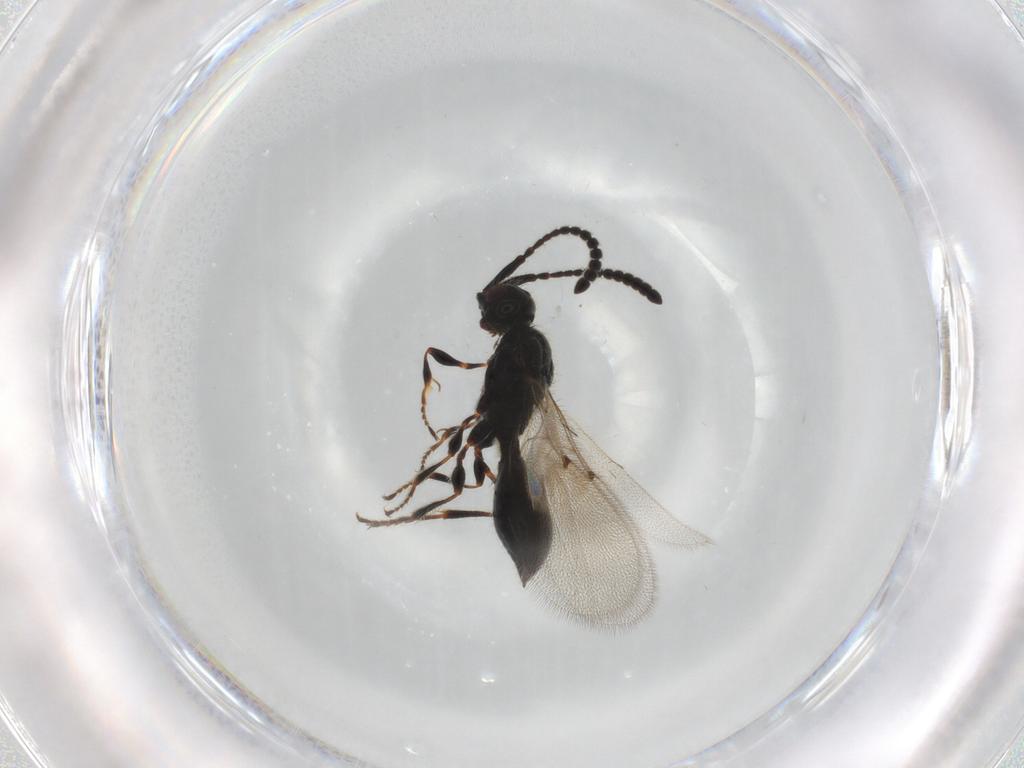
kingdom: Animalia
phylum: Arthropoda
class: Insecta
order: Hymenoptera
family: Diapriidae
